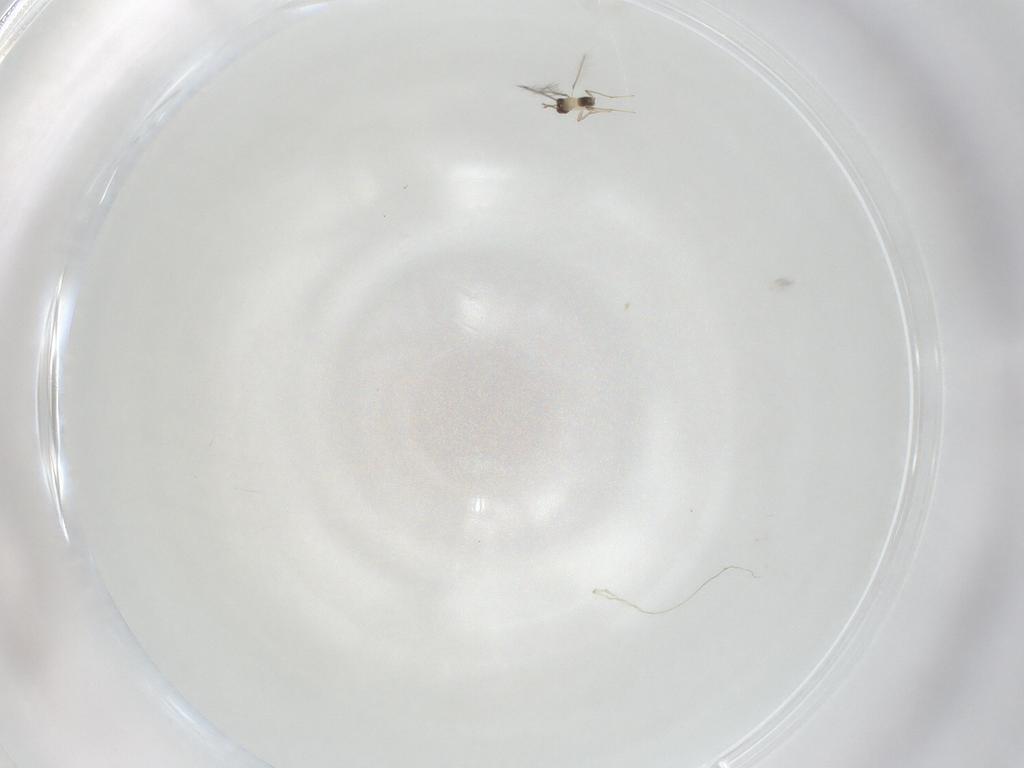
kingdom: Animalia
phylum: Arthropoda
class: Insecta
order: Hymenoptera
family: Mymaridae
